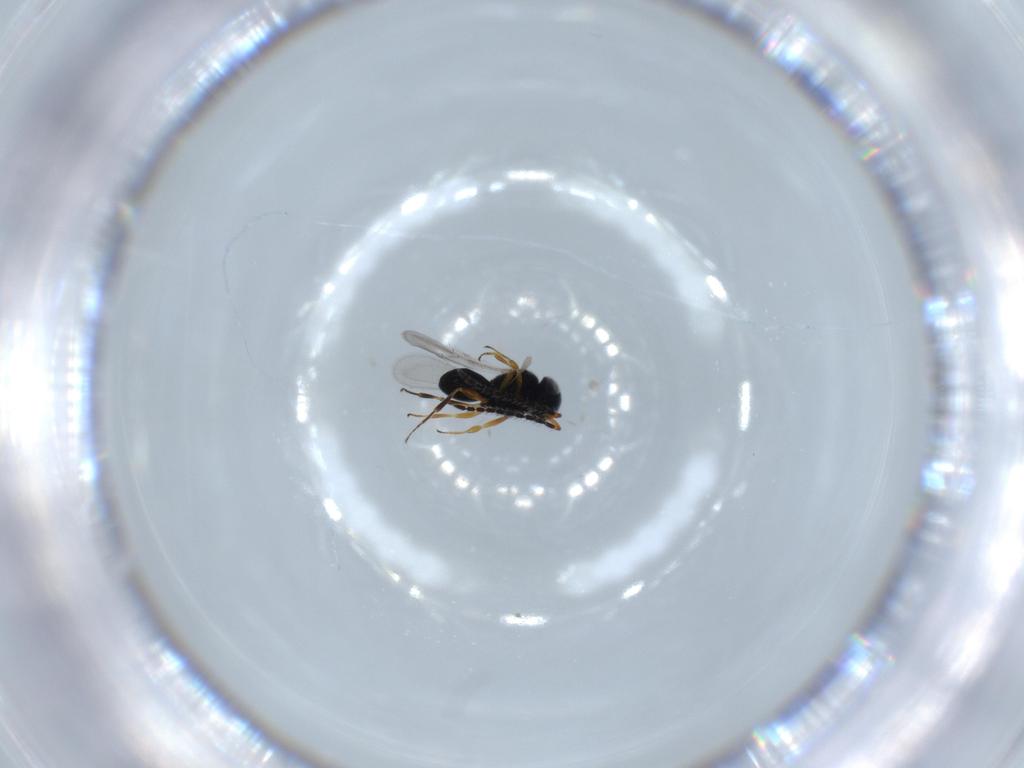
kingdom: Animalia
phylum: Arthropoda
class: Insecta
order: Hymenoptera
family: Scelionidae
